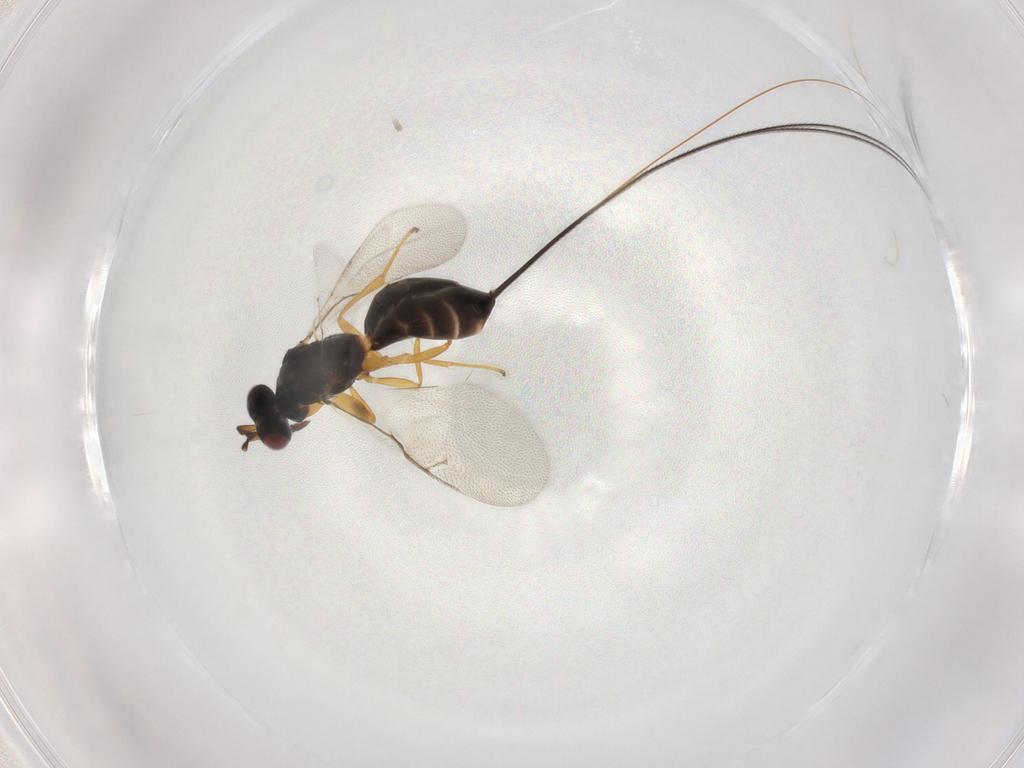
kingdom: Animalia
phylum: Arthropoda
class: Insecta
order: Hymenoptera
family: Pteromalidae
